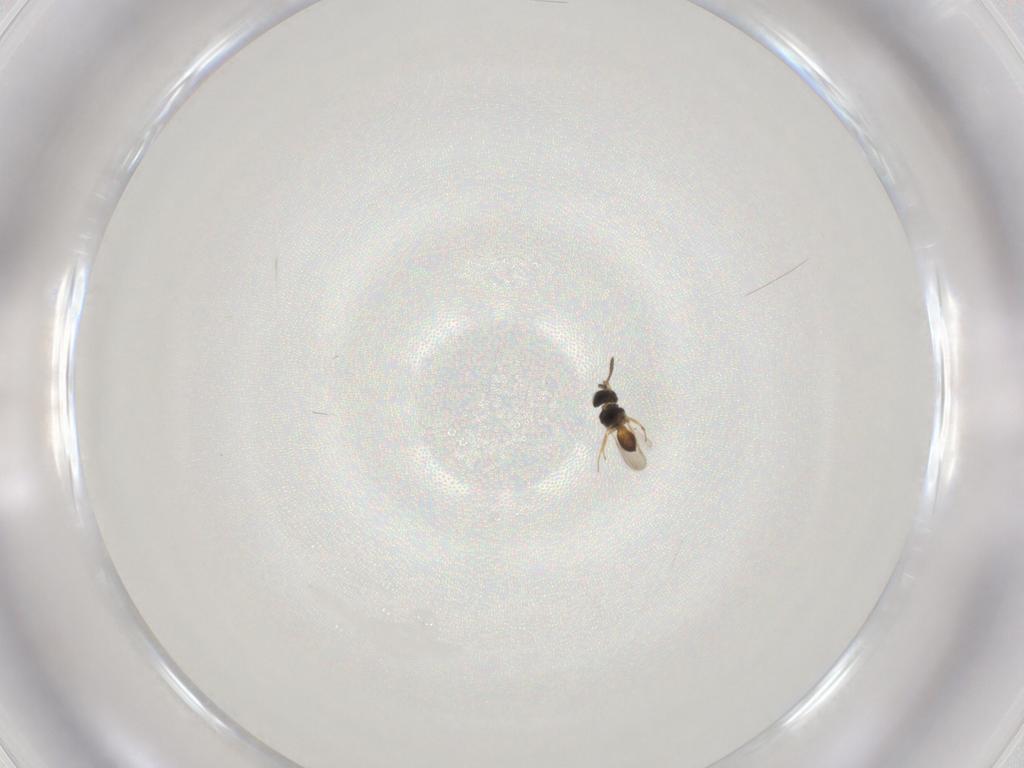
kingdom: Animalia
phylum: Arthropoda
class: Insecta
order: Hymenoptera
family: Scelionidae
